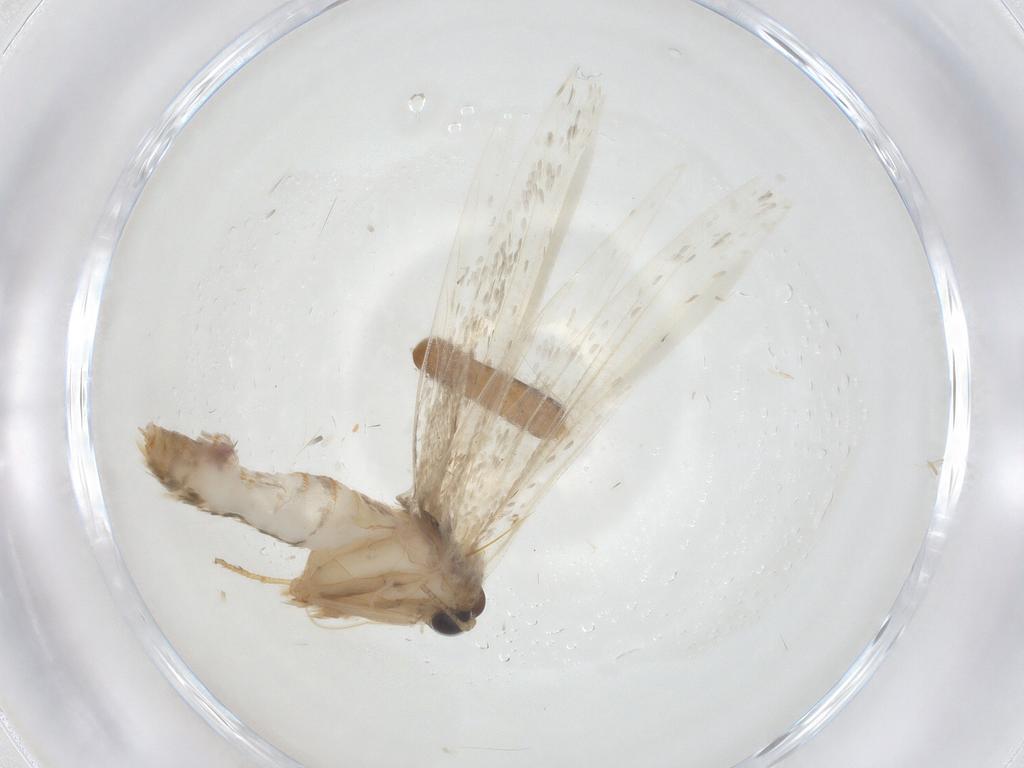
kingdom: Animalia
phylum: Arthropoda
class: Insecta
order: Lepidoptera
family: Blastobasidae
